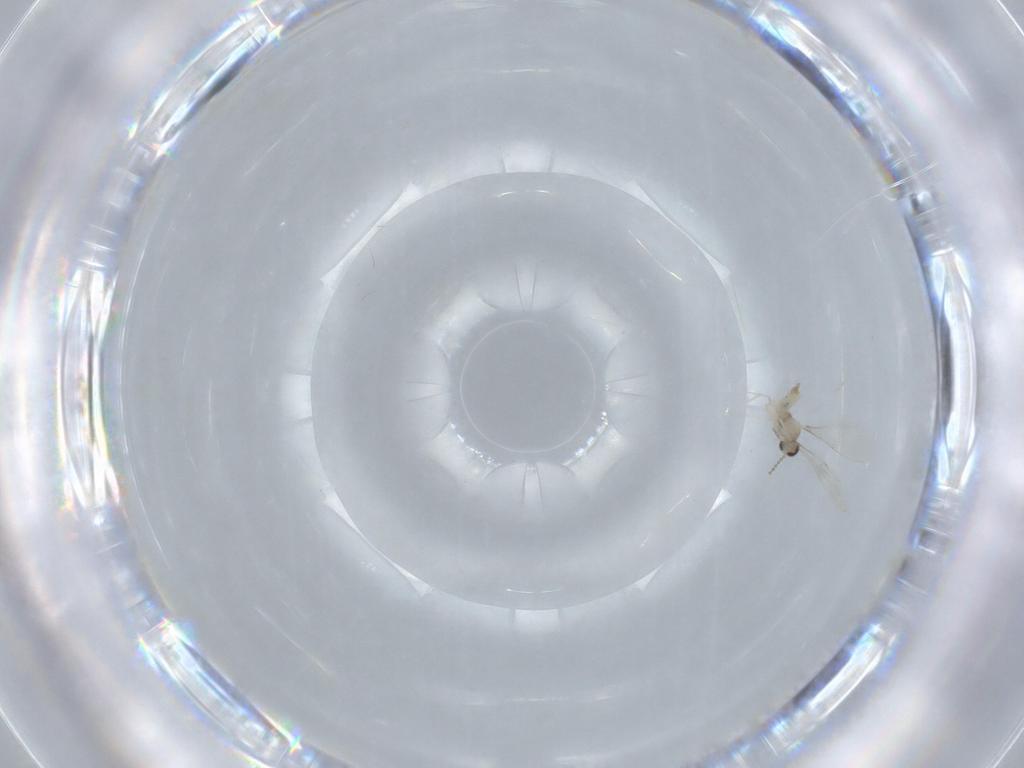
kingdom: Animalia
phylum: Arthropoda
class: Insecta
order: Diptera
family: Cecidomyiidae
